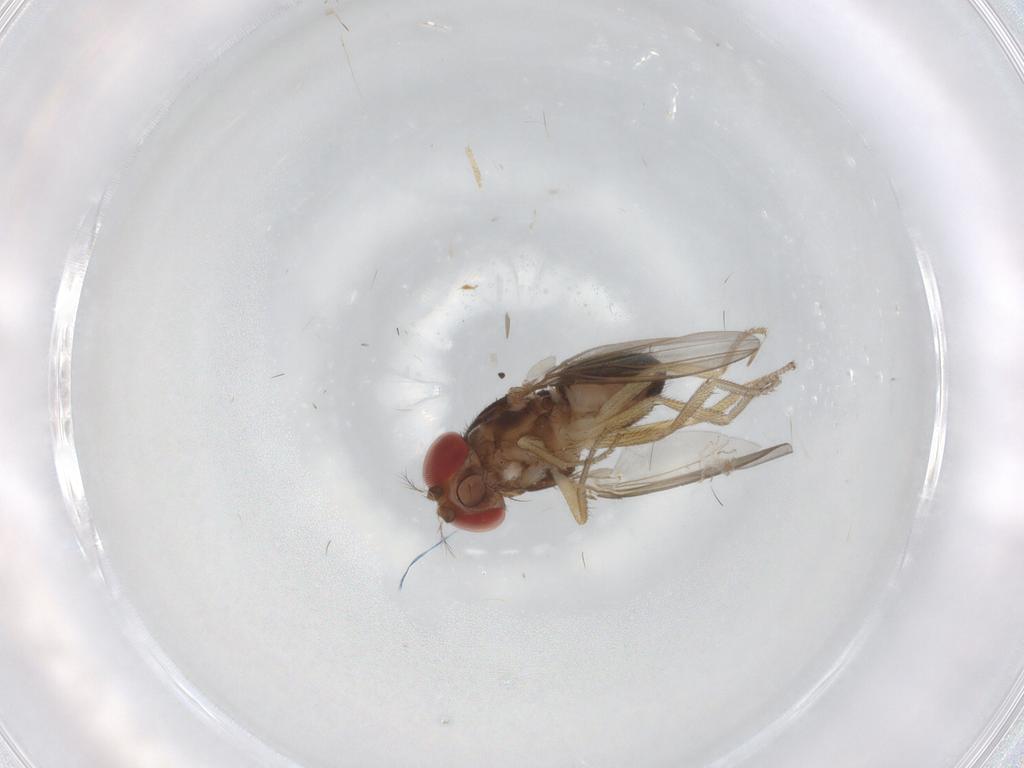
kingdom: Animalia
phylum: Arthropoda
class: Insecta
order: Diptera
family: Drosophilidae
